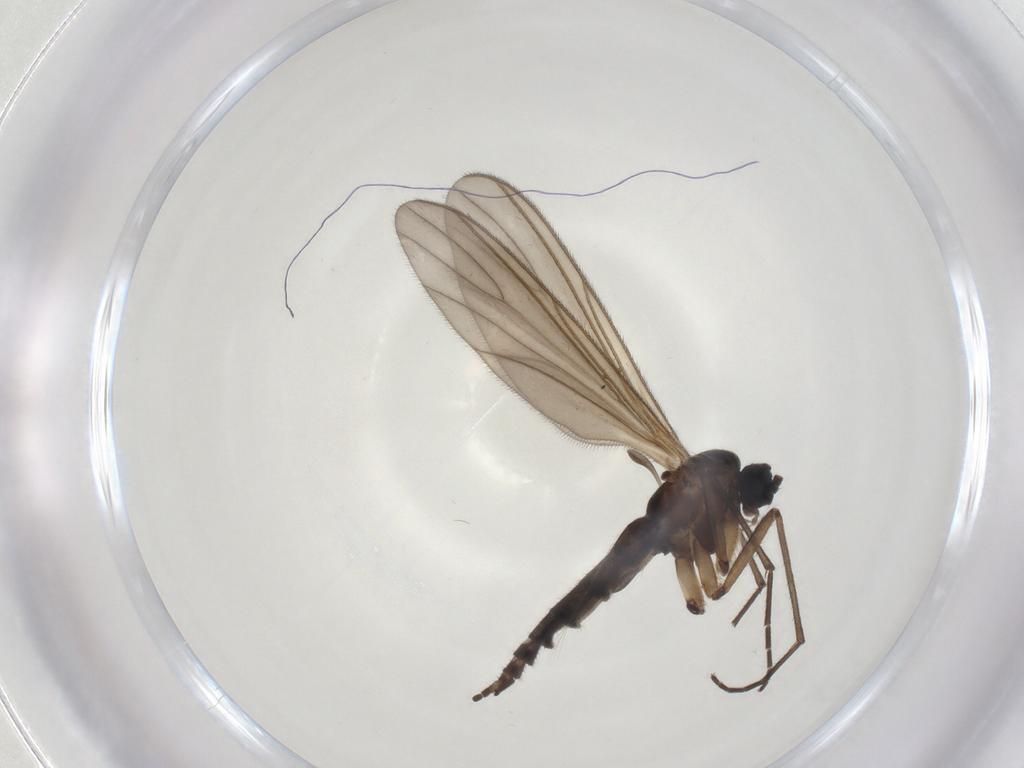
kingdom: Animalia
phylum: Arthropoda
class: Insecta
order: Diptera
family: Sciaridae
